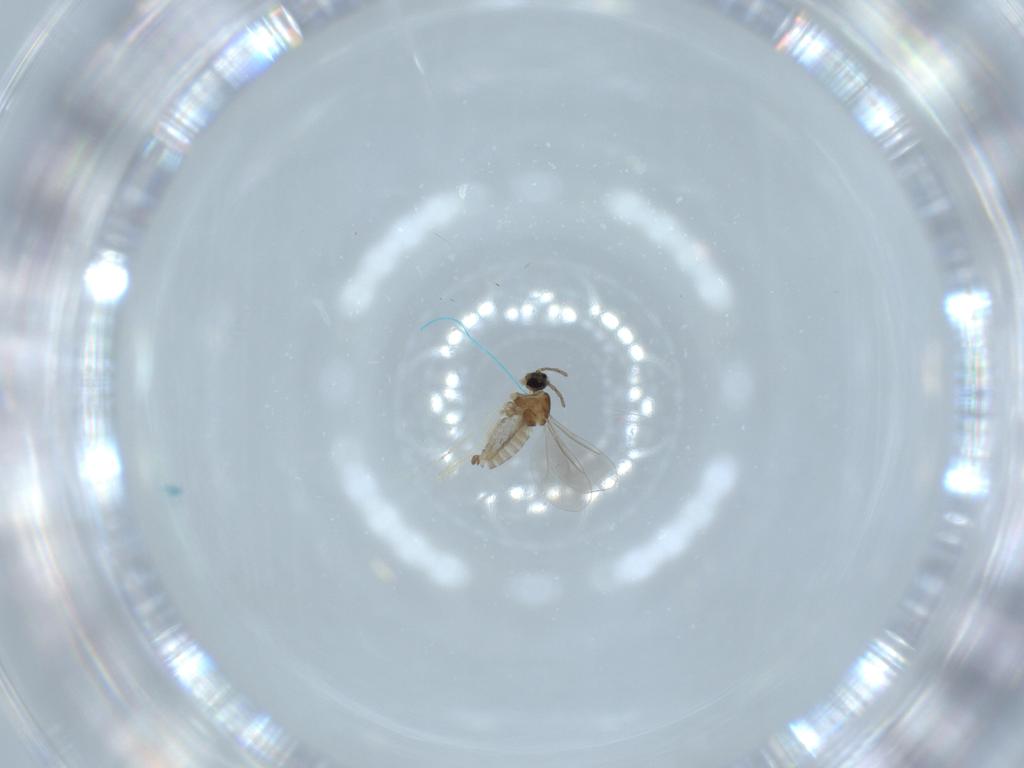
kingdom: Animalia
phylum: Arthropoda
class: Insecta
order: Diptera
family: Cecidomyiidae
